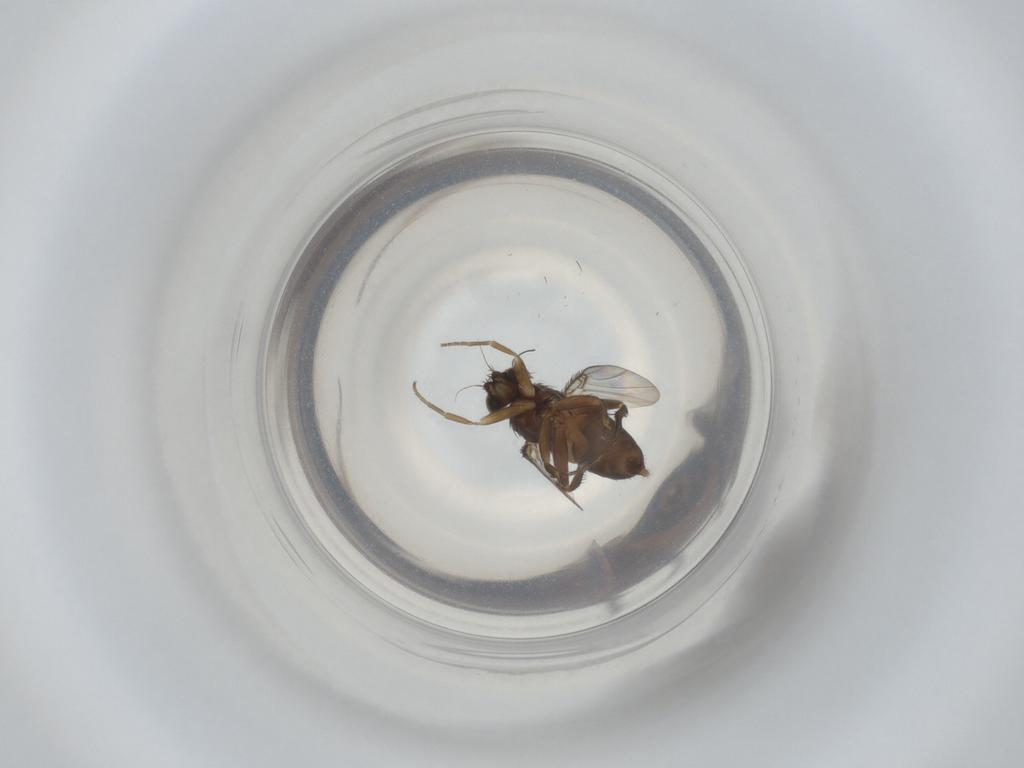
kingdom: Animalia
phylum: Arthropoda
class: Insecta
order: Diptera
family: Phoridae
